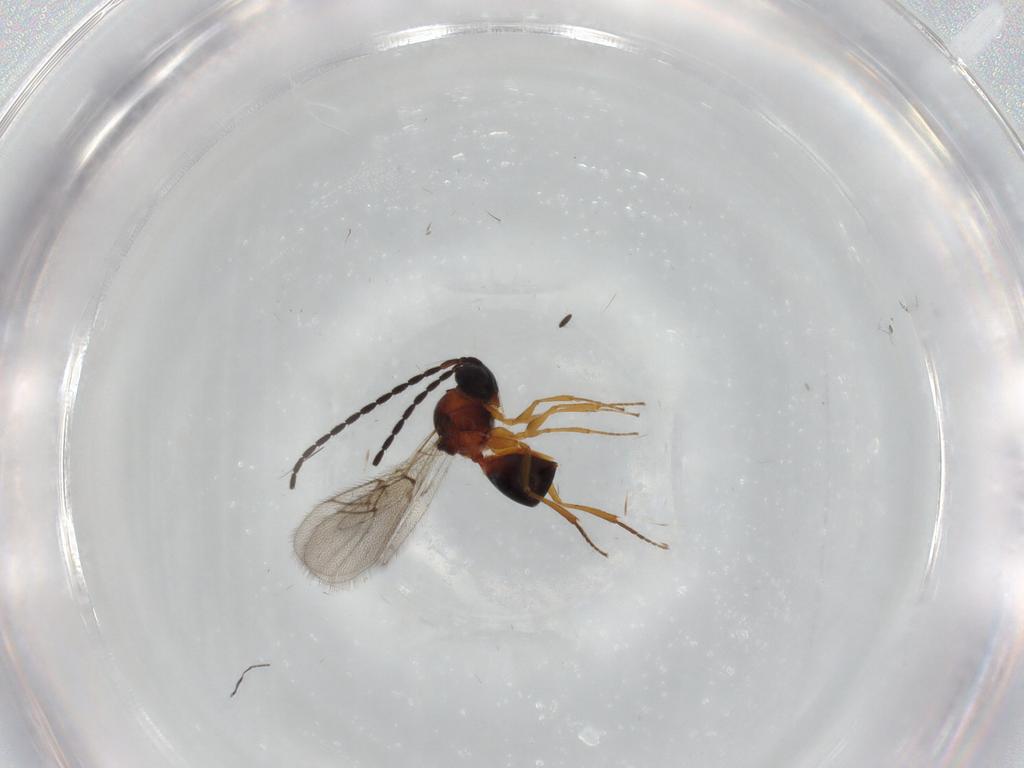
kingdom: Animalia
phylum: Arthropoda
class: Insecta
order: Hymenoptera
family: Figitidae
